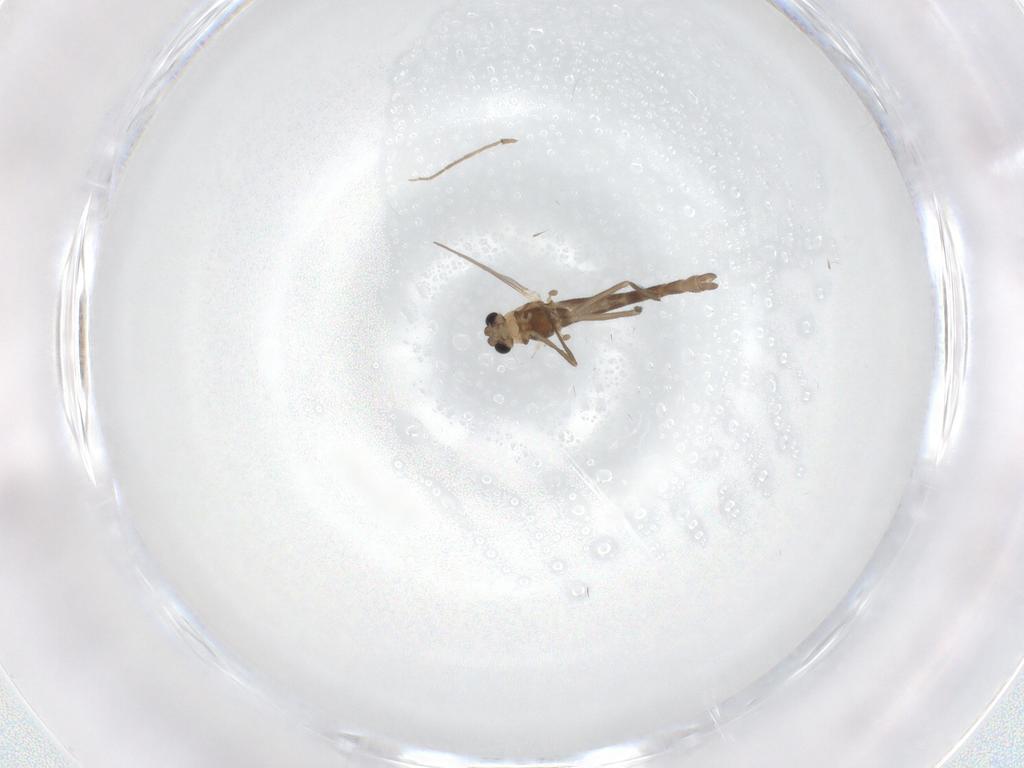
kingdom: Animalia
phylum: Arthropoda
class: Insecta
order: Diptera
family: Chironomidae
